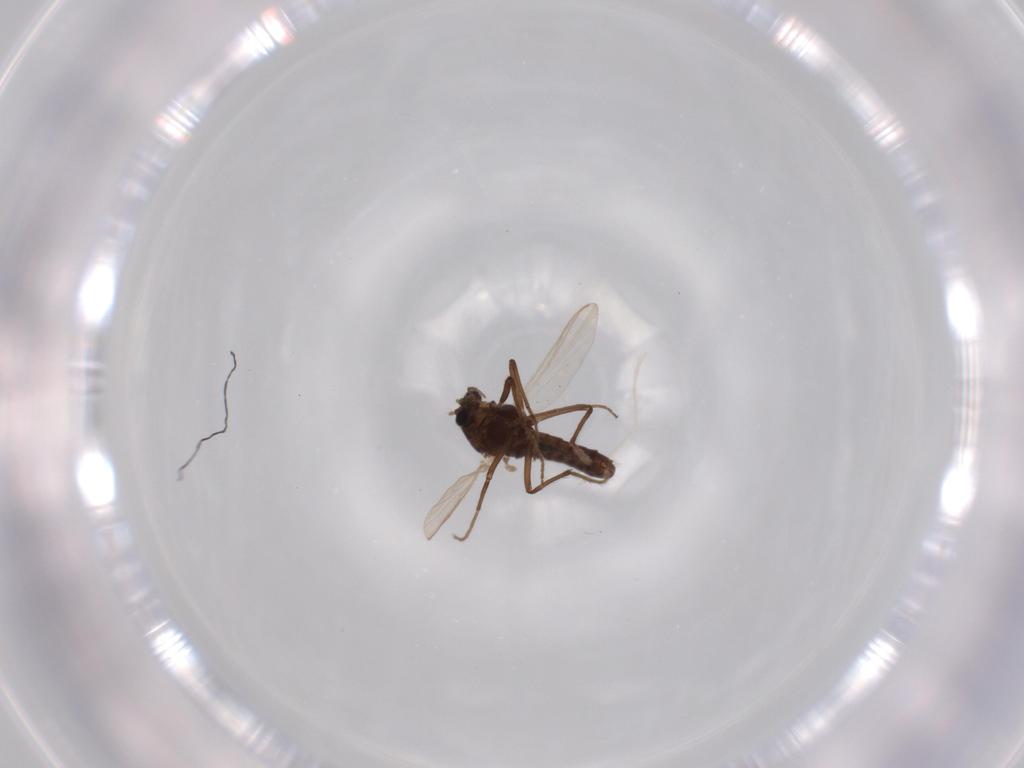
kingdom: Animalia
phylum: Arthropoda
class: Insecta
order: Diptera
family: Chironomidae
